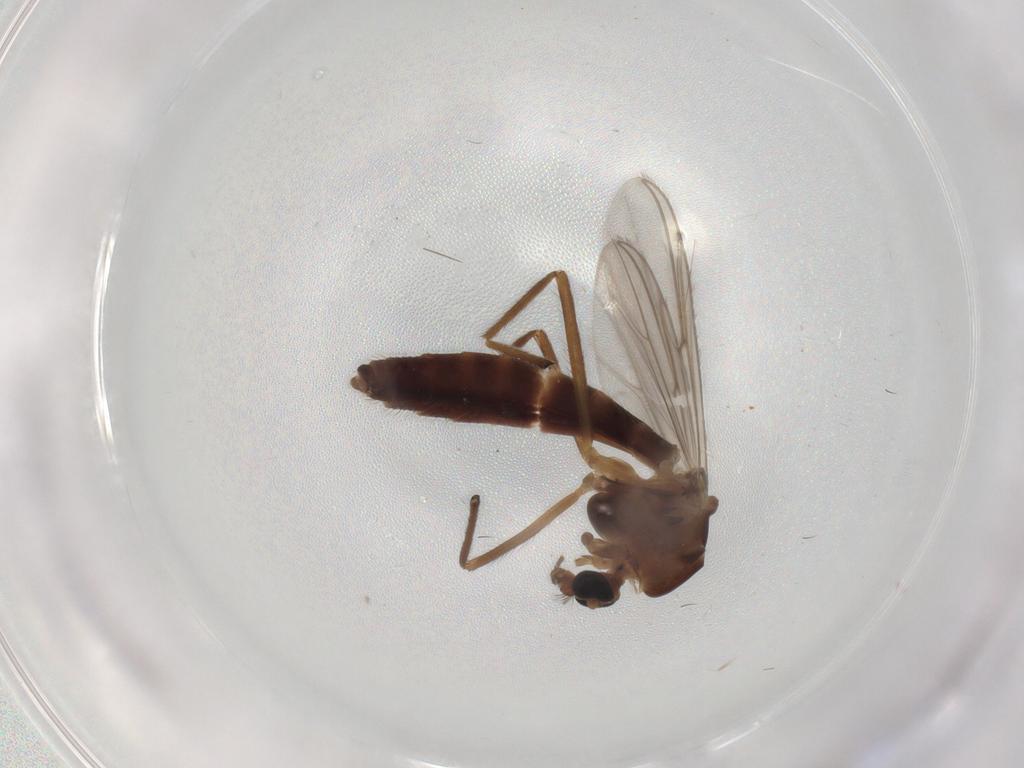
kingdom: Animalia
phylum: Arthropoda
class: Insecta
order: Diptera
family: Chironomidae
